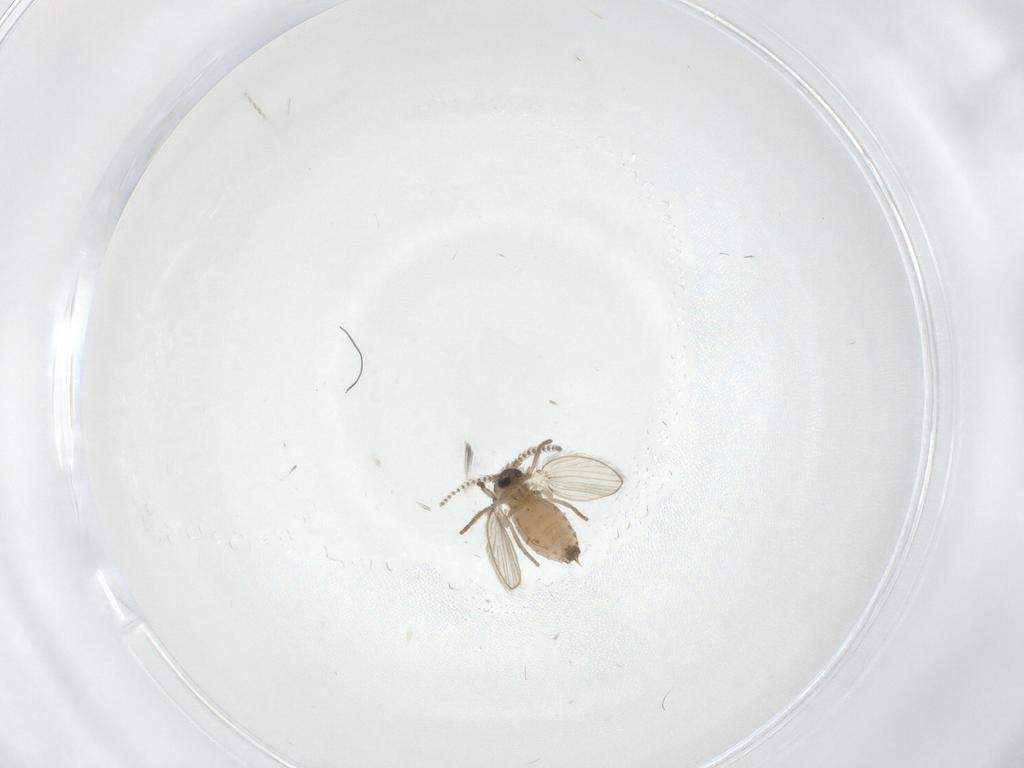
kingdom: Animalia
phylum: Arthropoda
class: Insecta
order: Diptera
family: Psychodidae
